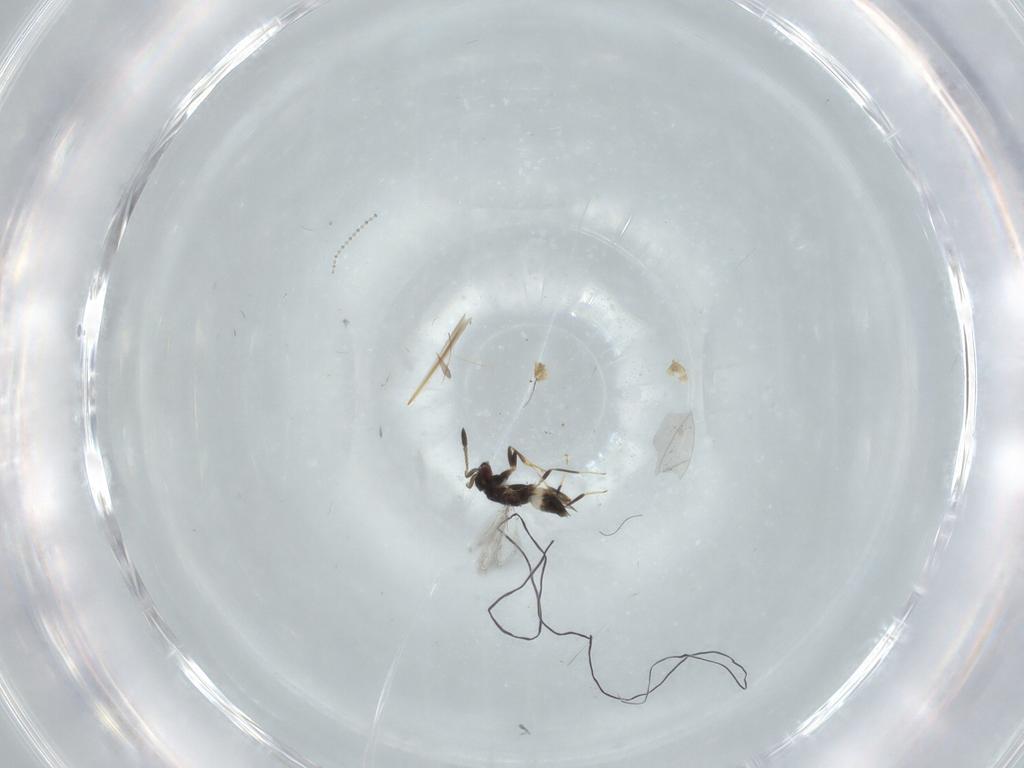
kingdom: Animalia
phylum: Arthropoda
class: Insecta
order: Hymenoptera
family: Mymaridae
